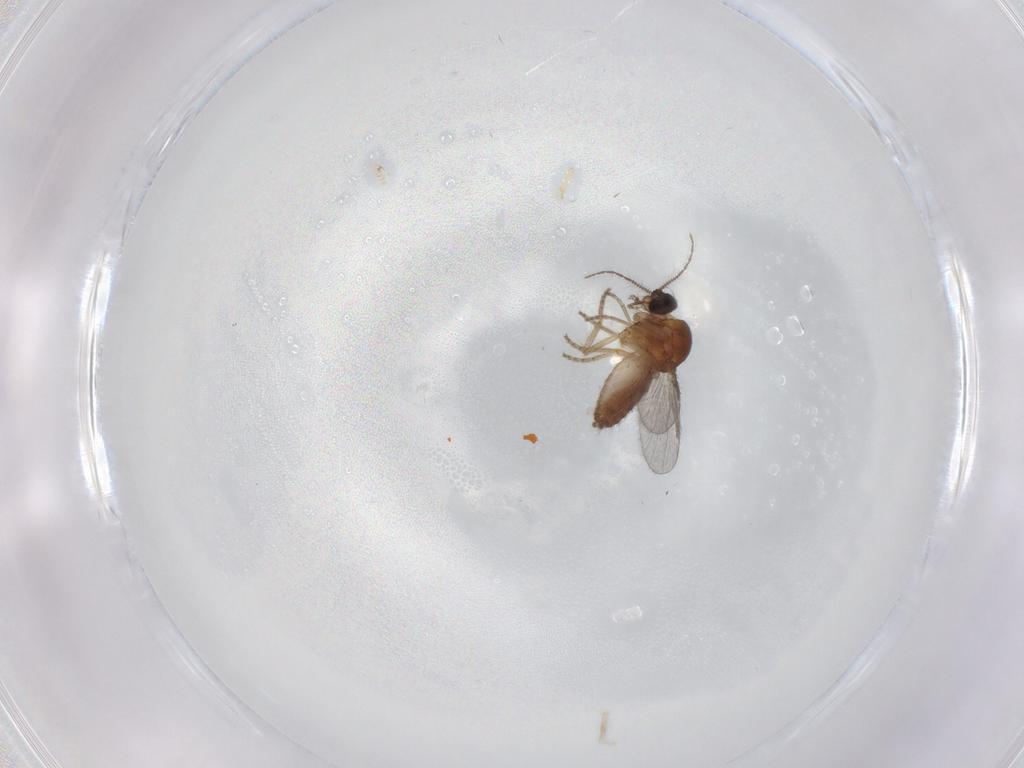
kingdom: Animalia
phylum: Arthropoda
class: Insecta
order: Diptera
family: Ceratopogonidae
